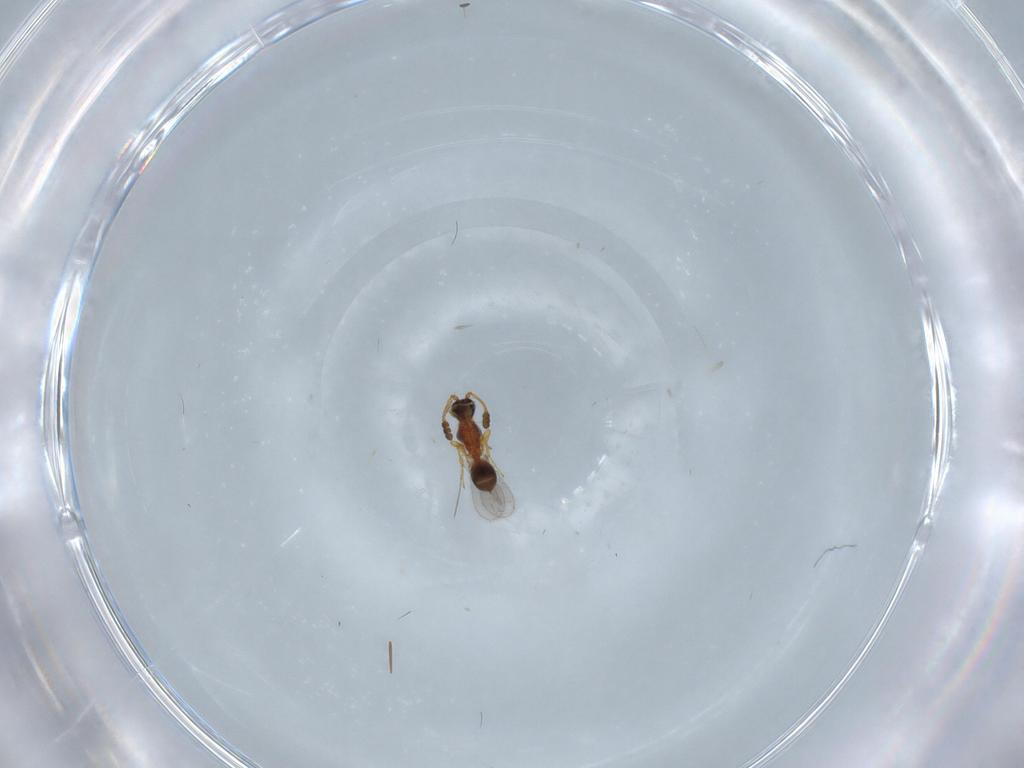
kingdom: Animalia
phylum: Arthropoda
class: Insecta
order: Hymenoptera
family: Diapriidae
